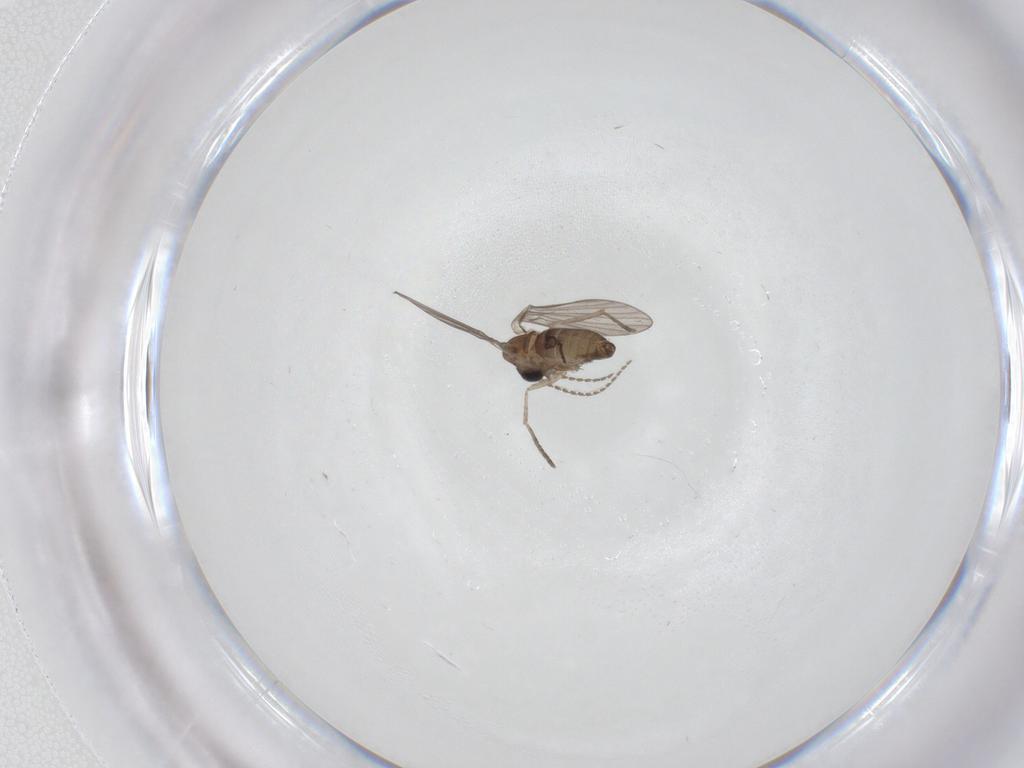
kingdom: Animalia
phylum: Arthropoda
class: Insecta
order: Diptera
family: Psychodidae
